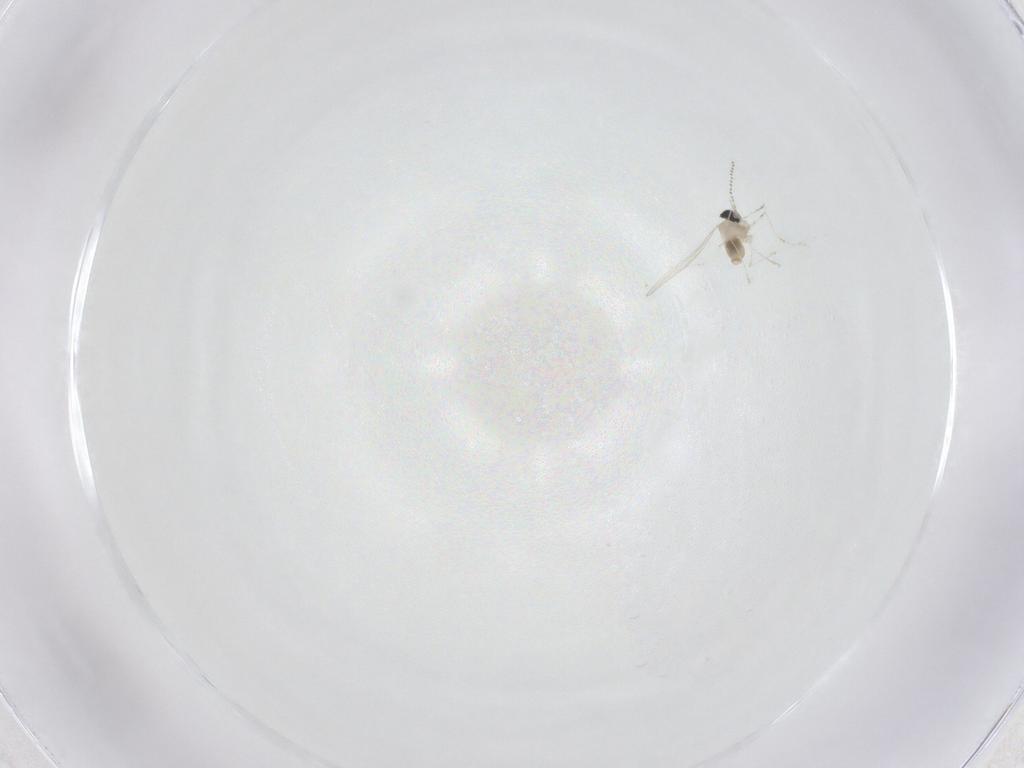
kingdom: Animalia
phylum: Arthropoda
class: Insecta
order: Diptera
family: Cecidomyiidae
